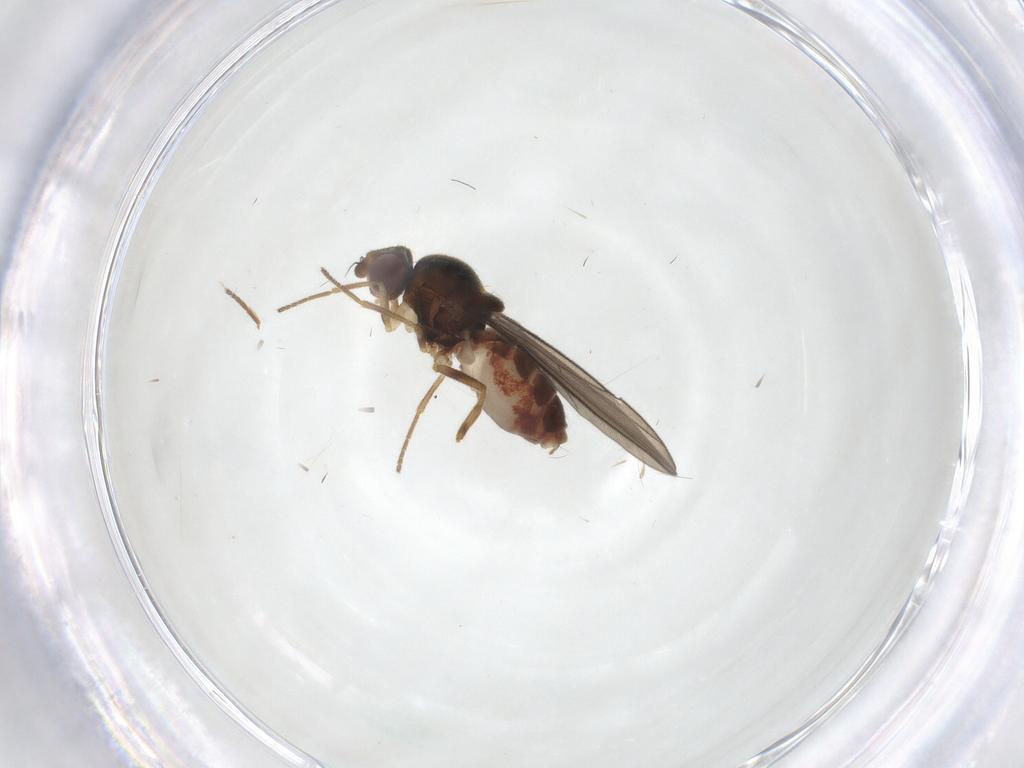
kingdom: Animalia
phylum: Arthropoda
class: Insecta
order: Diptera
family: Chloropidae
